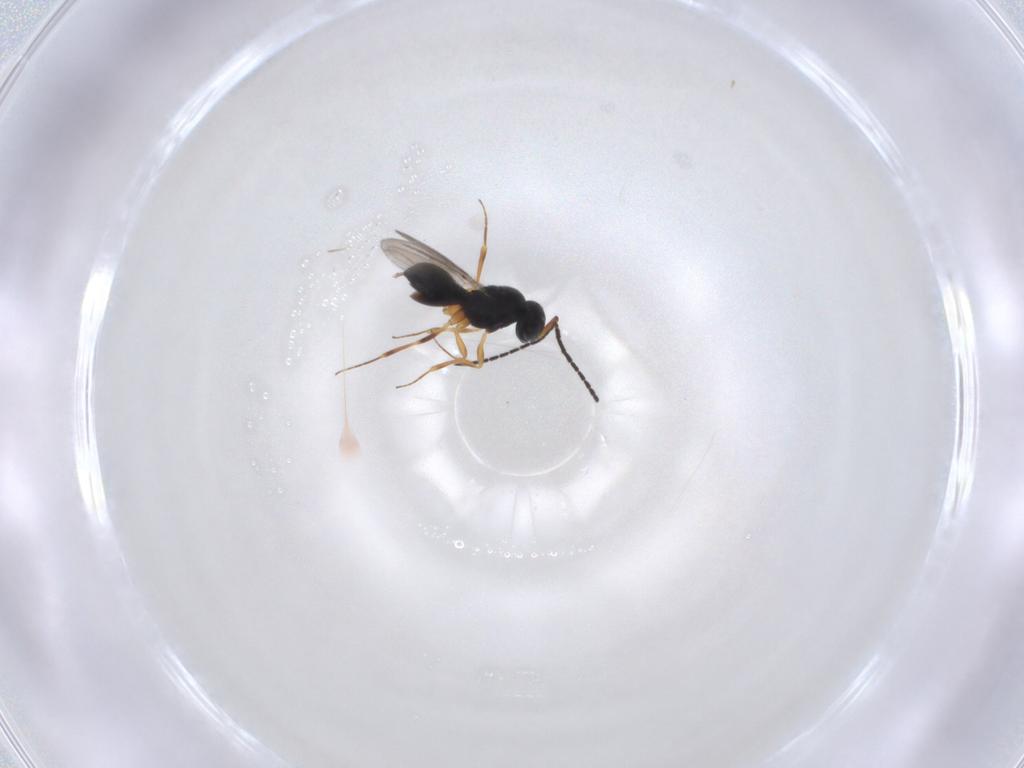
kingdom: Animalia
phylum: Arthropoda
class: Insecta
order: Hymenoptera
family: Scelionidae
